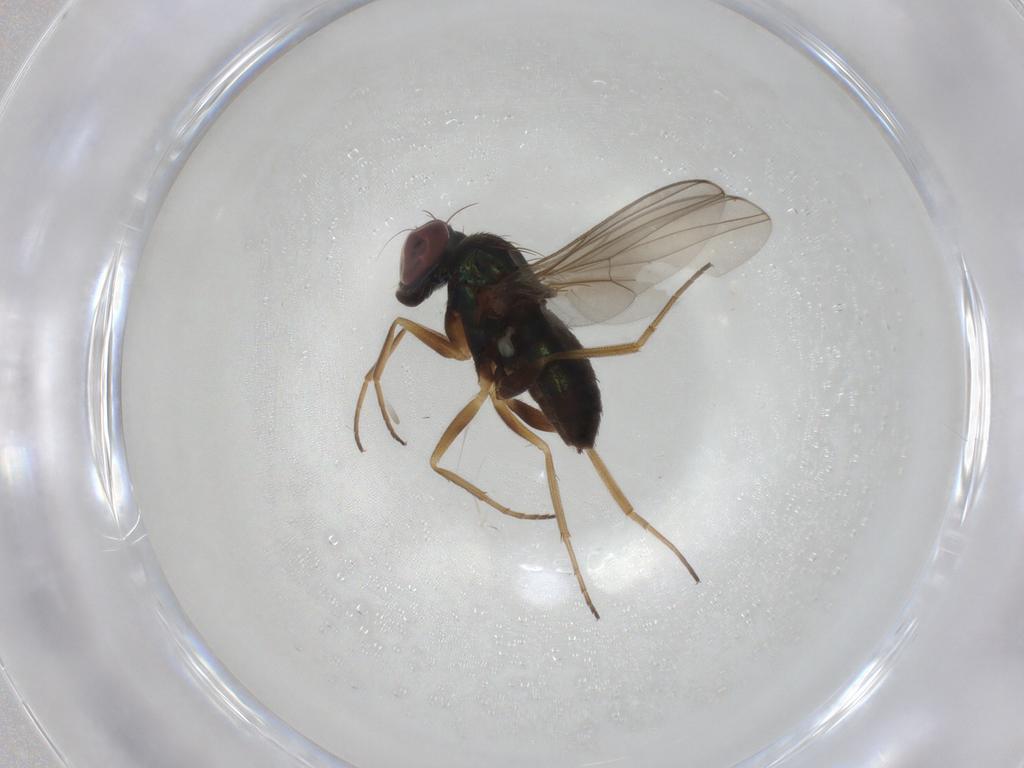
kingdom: Animalia
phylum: Arthropoda
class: Insecta
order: Diptera
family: Dolichopodidae
